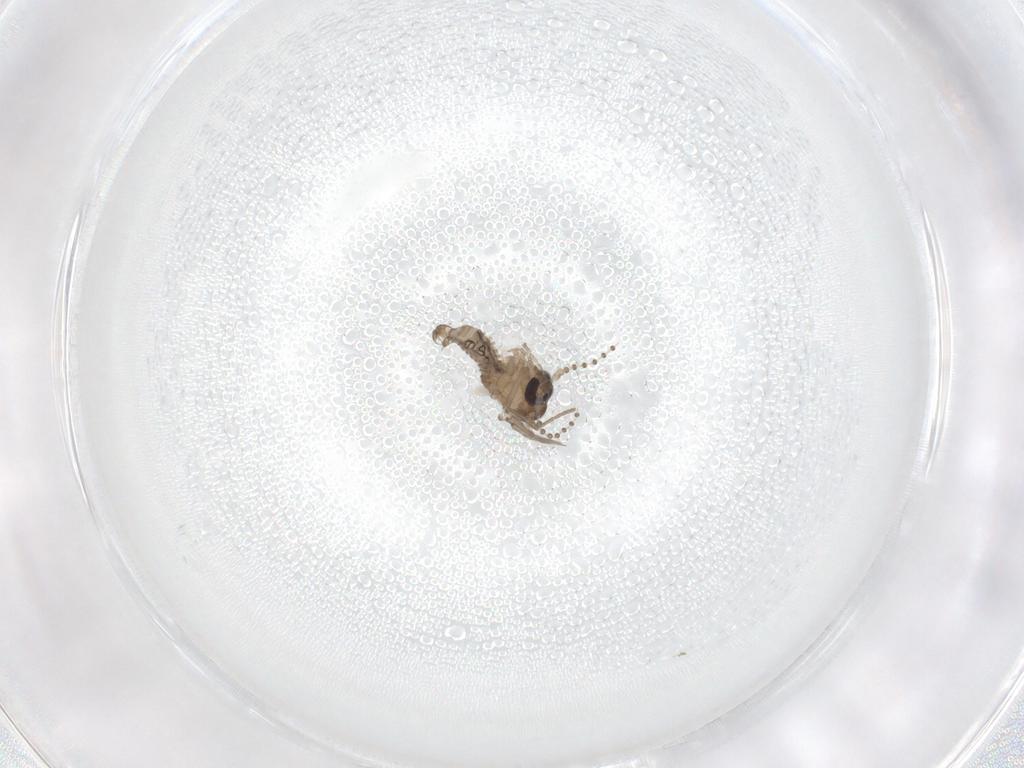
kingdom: Animalia
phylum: Arthropoda
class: Insecta
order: Diptera
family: Psychodidae
